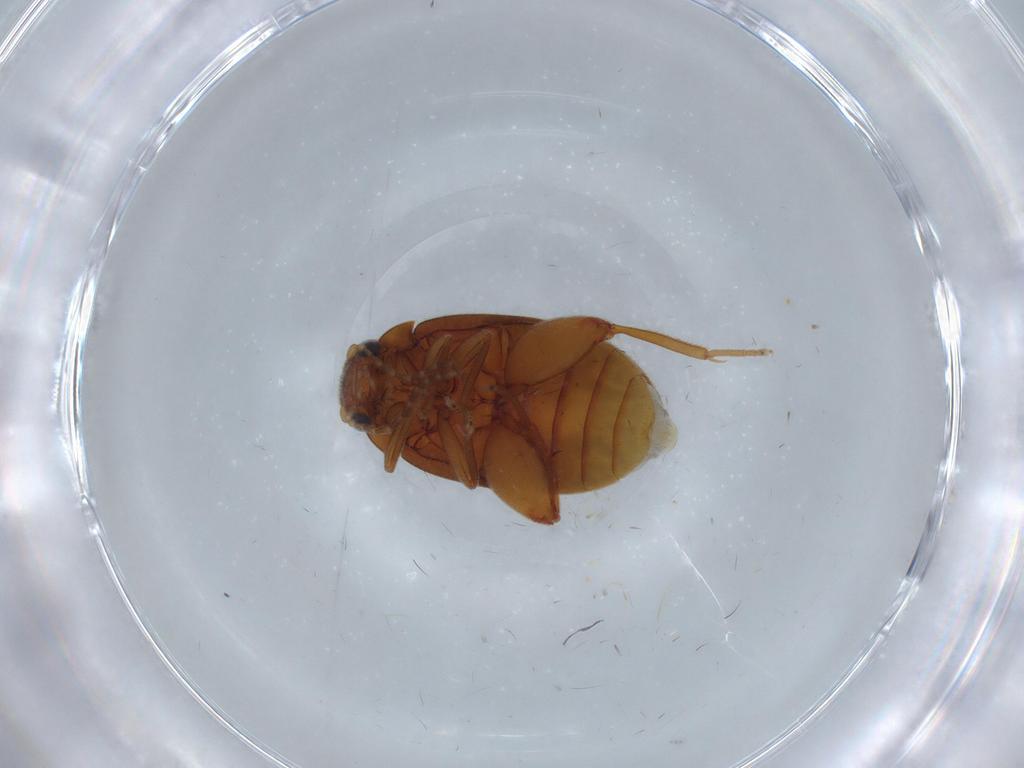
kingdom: Animalia
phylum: Arthropoda
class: Insecta
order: Coleoptera
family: Scirtidae
